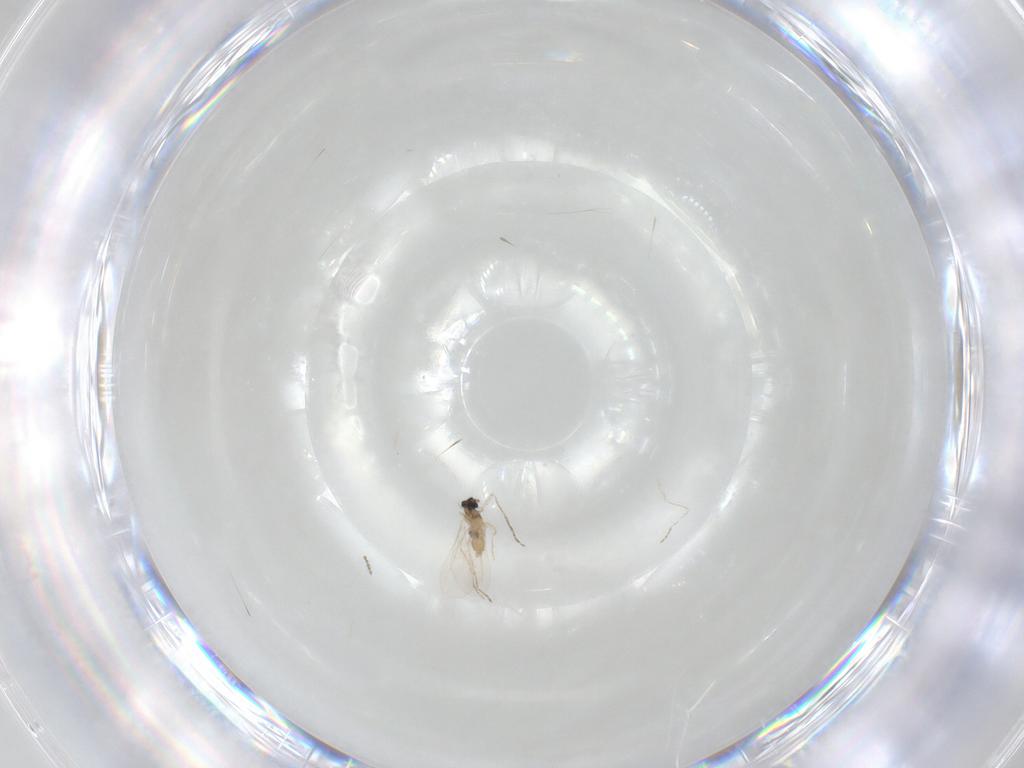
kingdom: Animalia
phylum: Arthropoda
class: Insecta
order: Diptera
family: Cecidomyiidae
